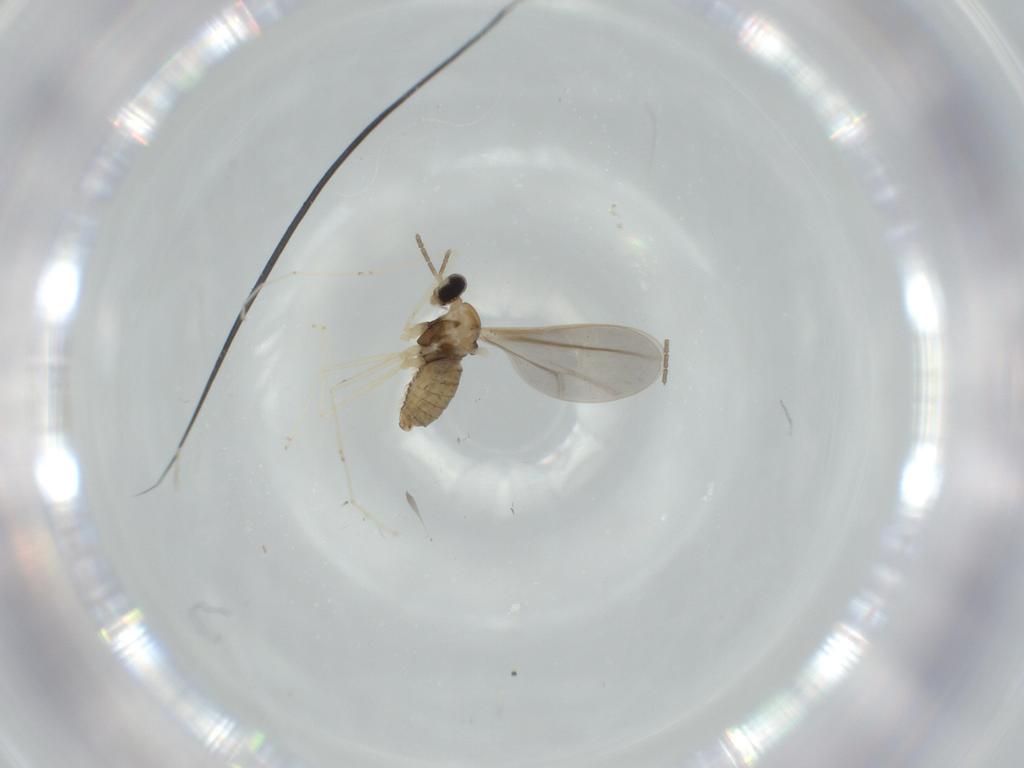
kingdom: Animalia
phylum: Arthropoda
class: Insecta
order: Diptera
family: Cecidomyiidae
